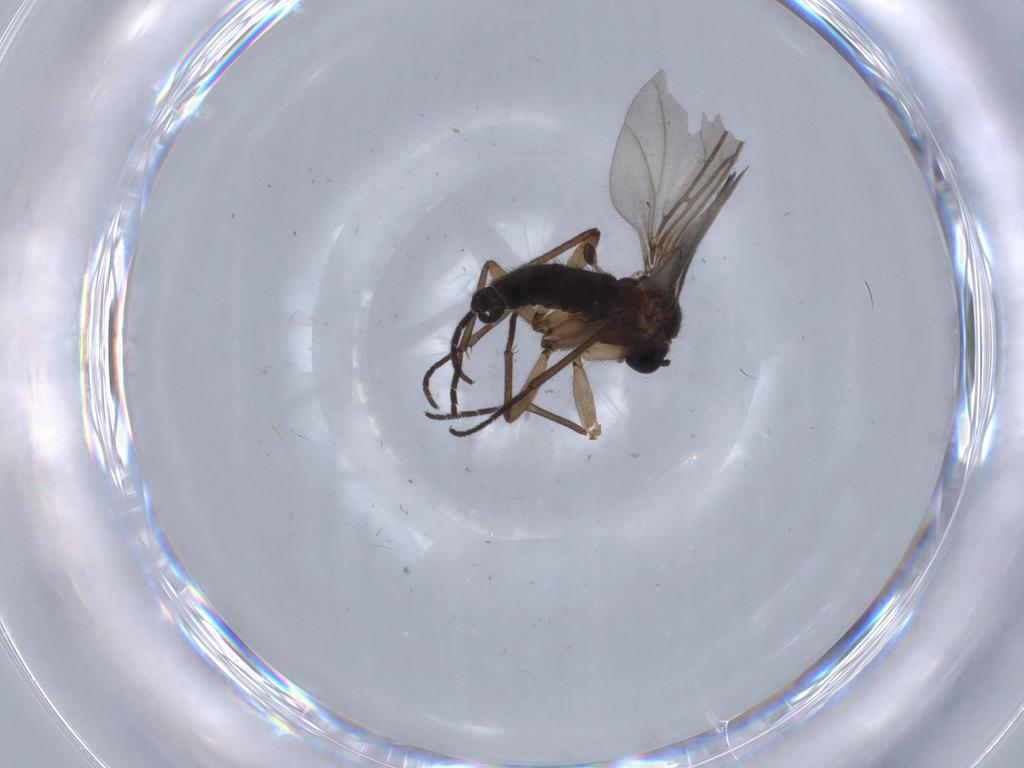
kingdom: Animalia
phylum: Arthropoda
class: Insecta
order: Diptera
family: Sciaridae
